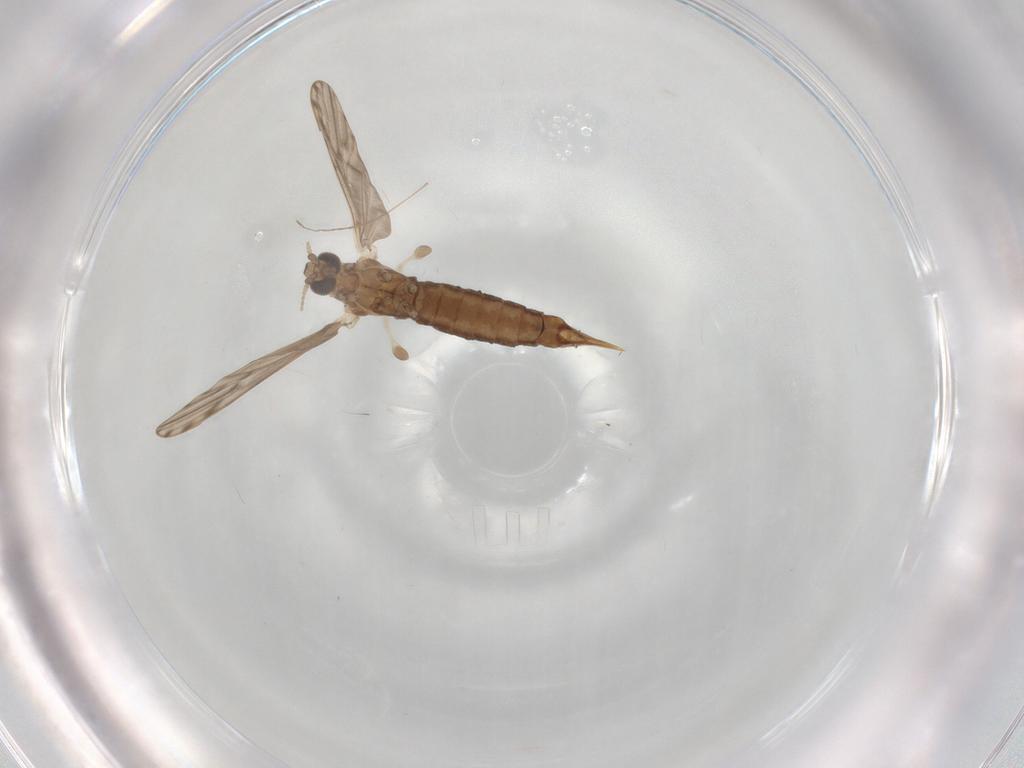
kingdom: Animalia
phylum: Arthropoda
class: Insecta
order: Diptera
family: Limoniidae
